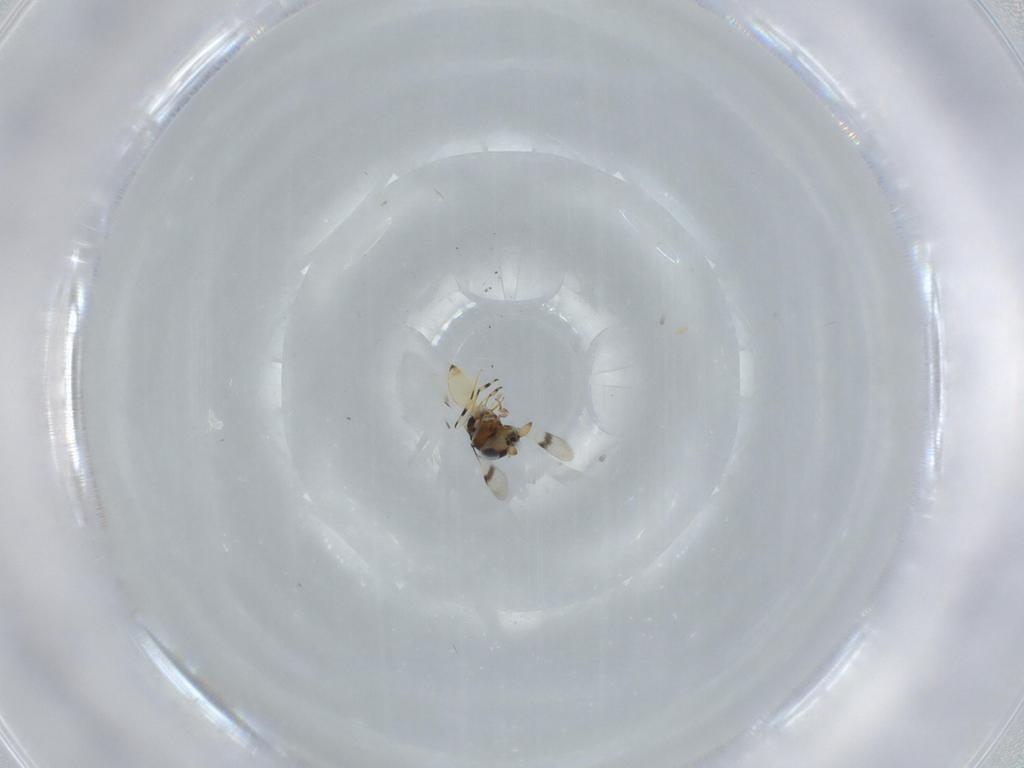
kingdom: Animalia
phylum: Arthropoda
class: Insecta
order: Hymenoptera
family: Scelionidae
